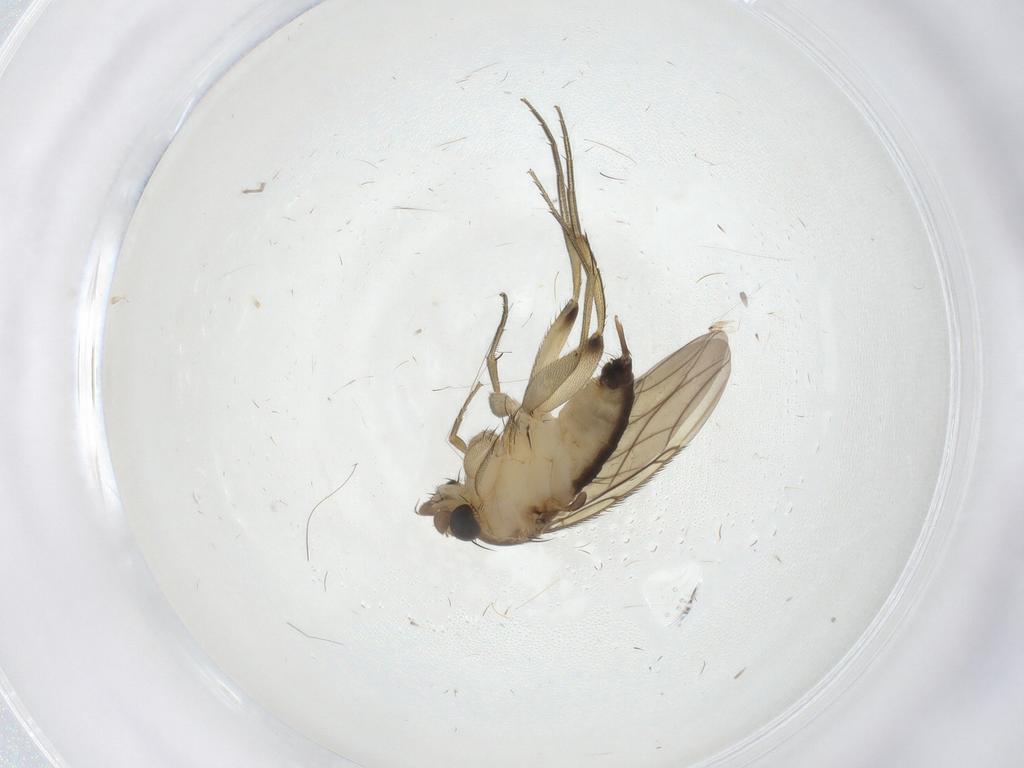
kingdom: Animalia
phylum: Arthropoda
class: Insecta
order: Diptera
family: Phoridae
